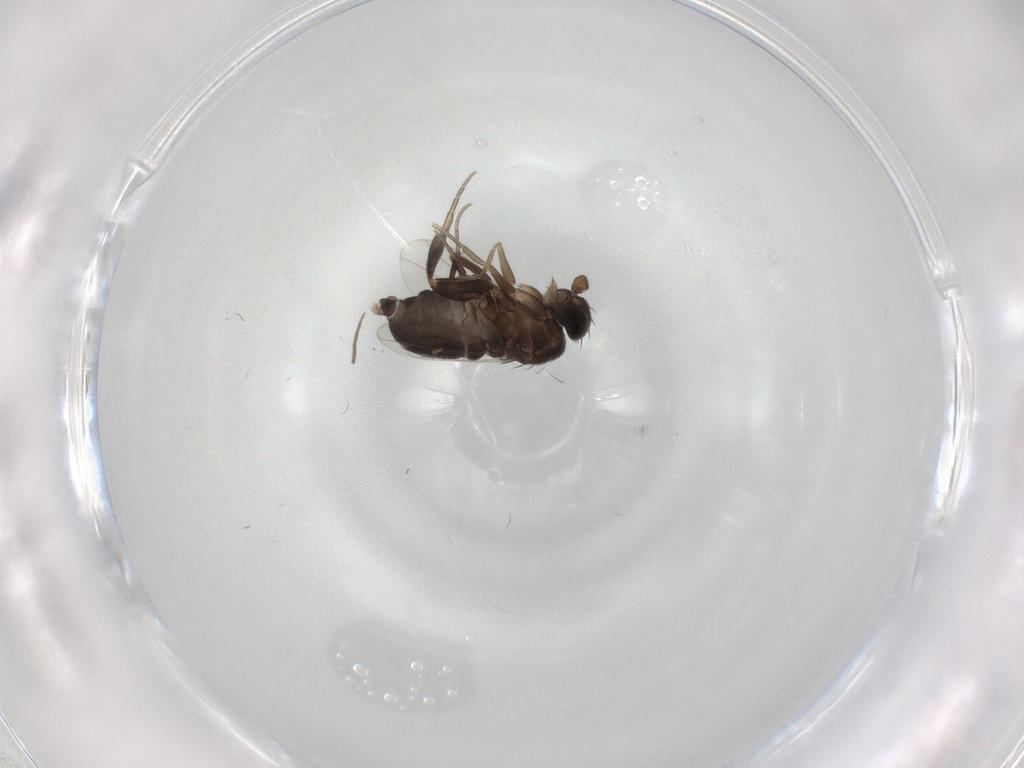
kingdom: Animalia
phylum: Arthropoda
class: Insecta
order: Diptera
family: Phoridae
